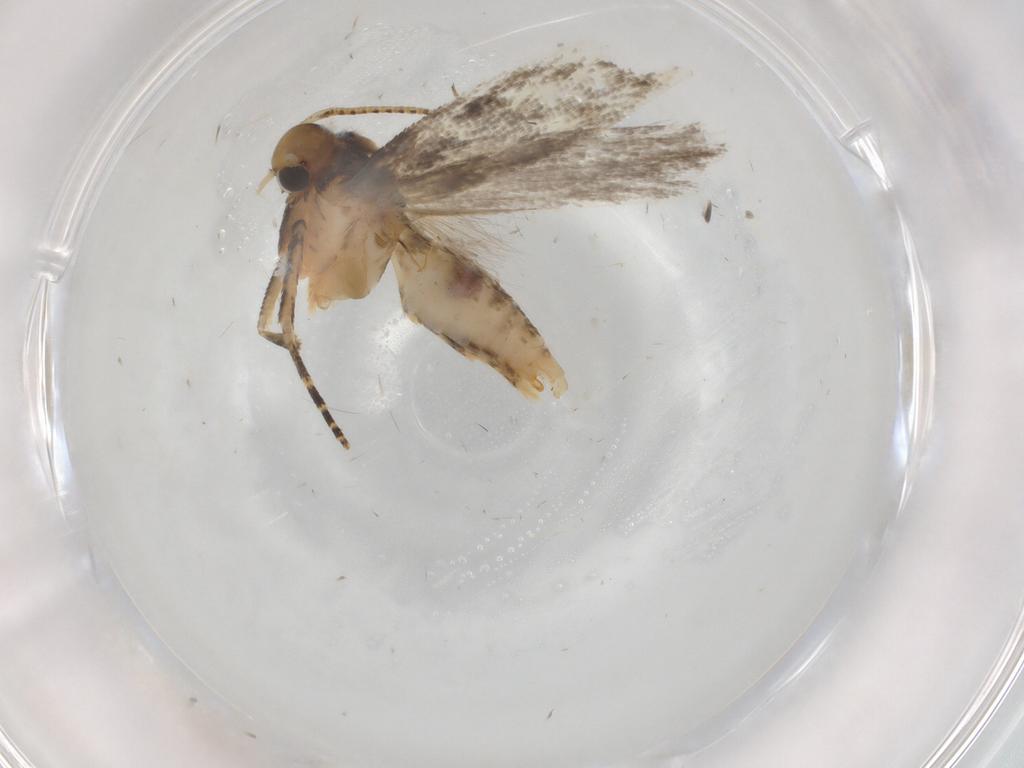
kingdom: Animalia
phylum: Arthropoda
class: Insecta
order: Lepidoptera
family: Gelechiidae
